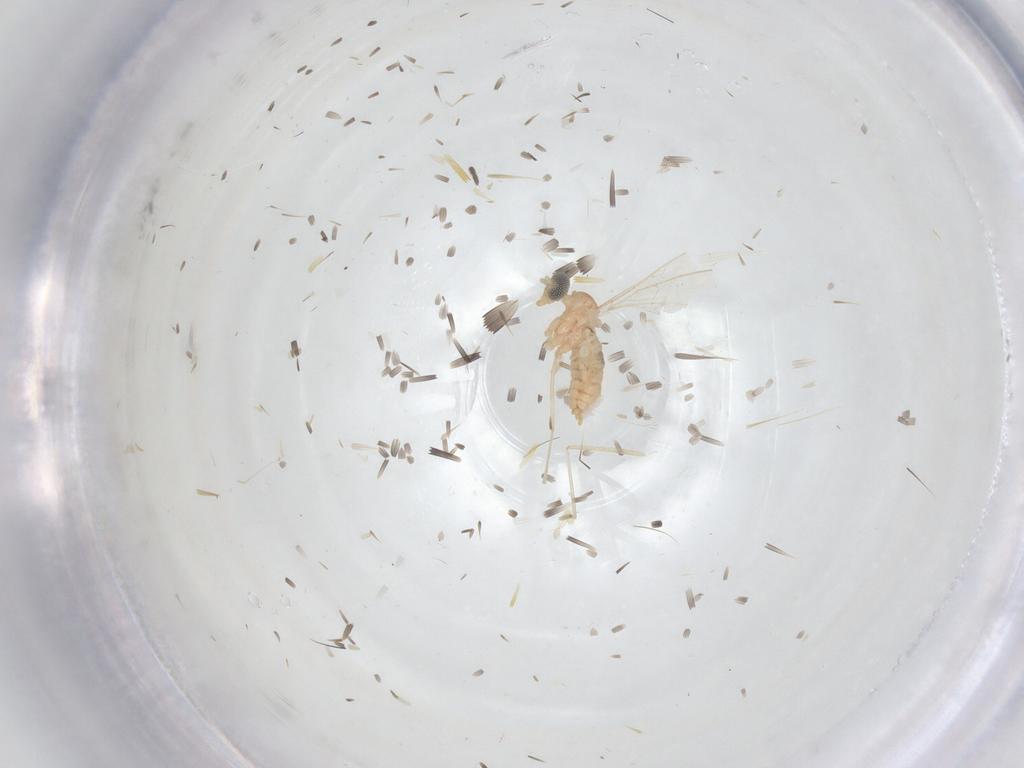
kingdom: Animalia
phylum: Arthropoda
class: Insecta
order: Diptera
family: Cecidomyiidae
